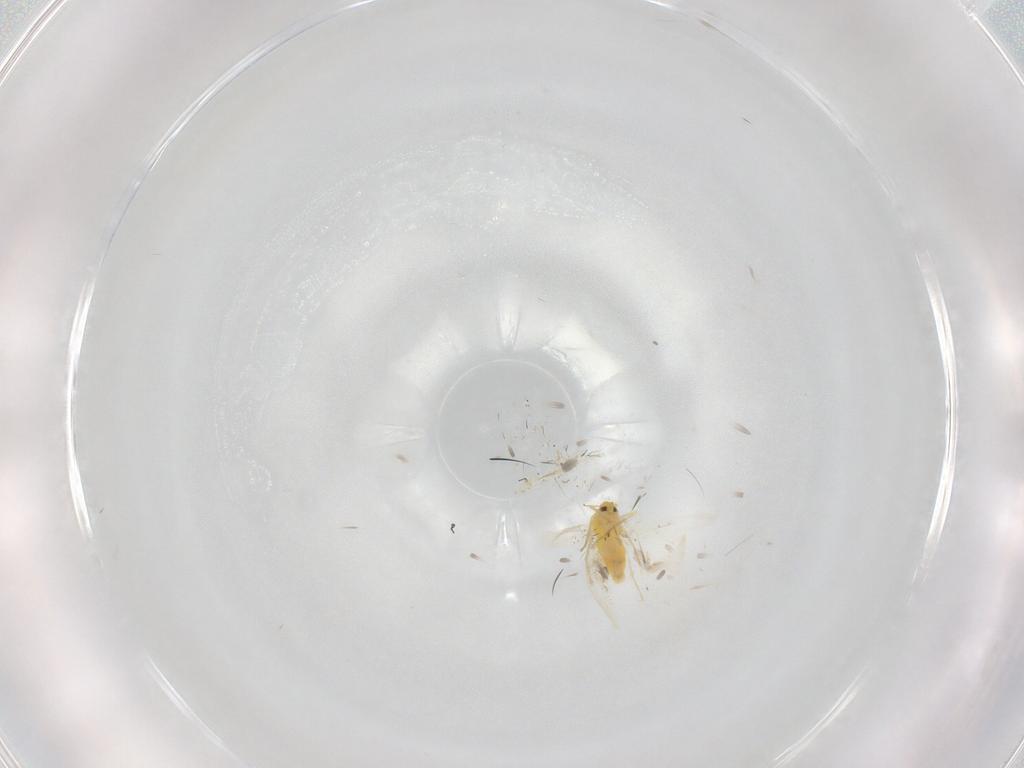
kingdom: Animalia
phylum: Arthropoda
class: Insecta
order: Hemiptera
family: Aleyrodidae
